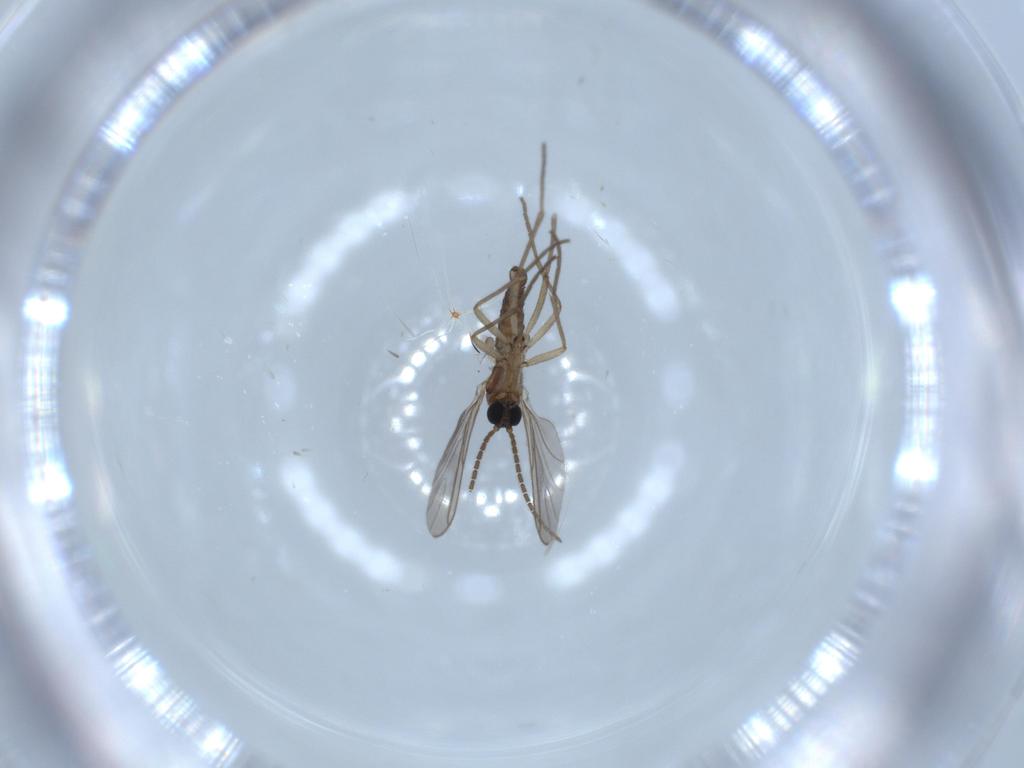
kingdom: Animalia
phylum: Arthropoda
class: Insecta
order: Diptera
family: Sciaridae
